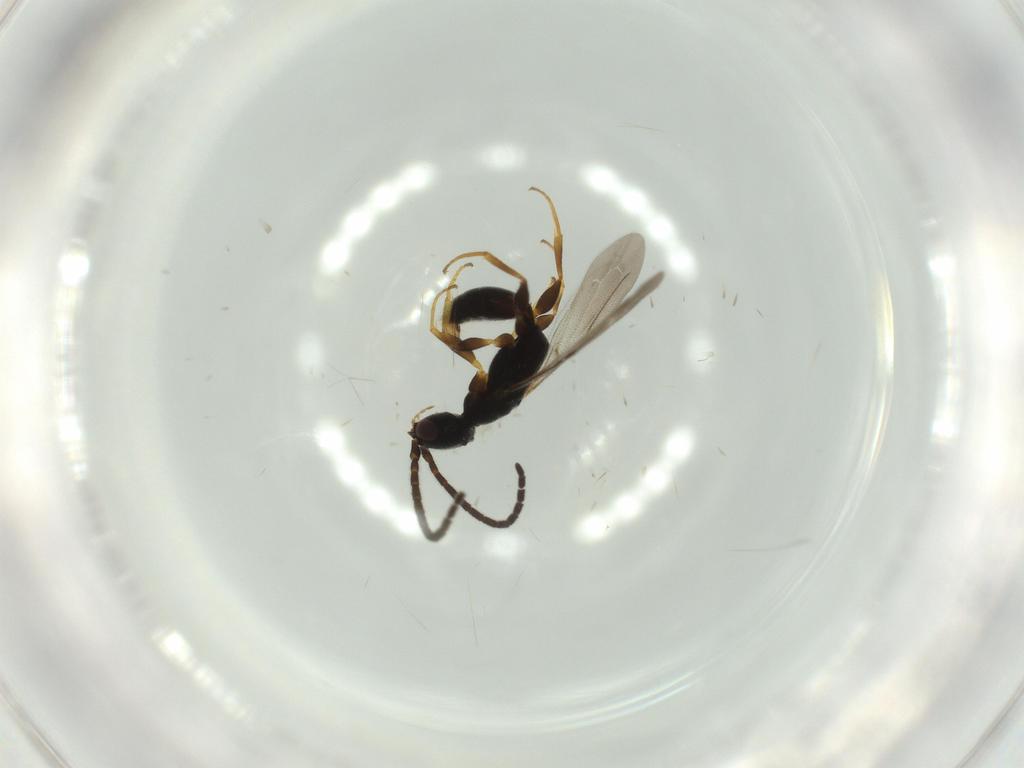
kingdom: Animalia
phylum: Arthropoda
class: Insecta
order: Hymenoptera
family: Bethylidae
